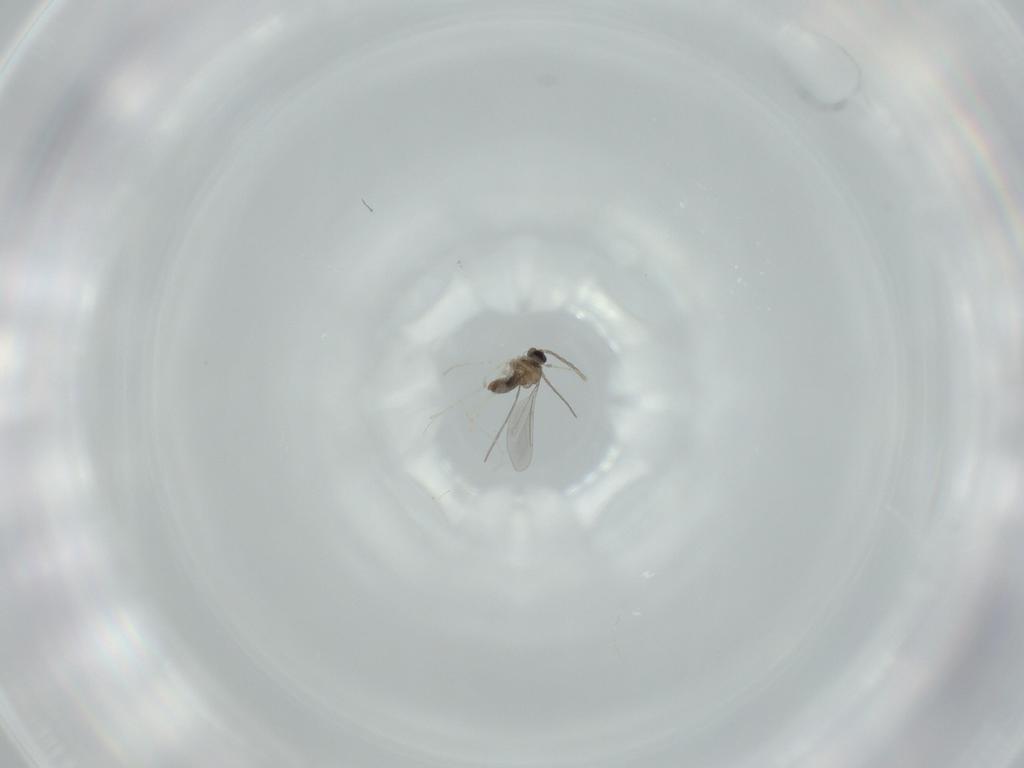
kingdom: Animalia
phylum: Arthropoda
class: Insecta
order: Diptera
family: Cecidomyiidae
